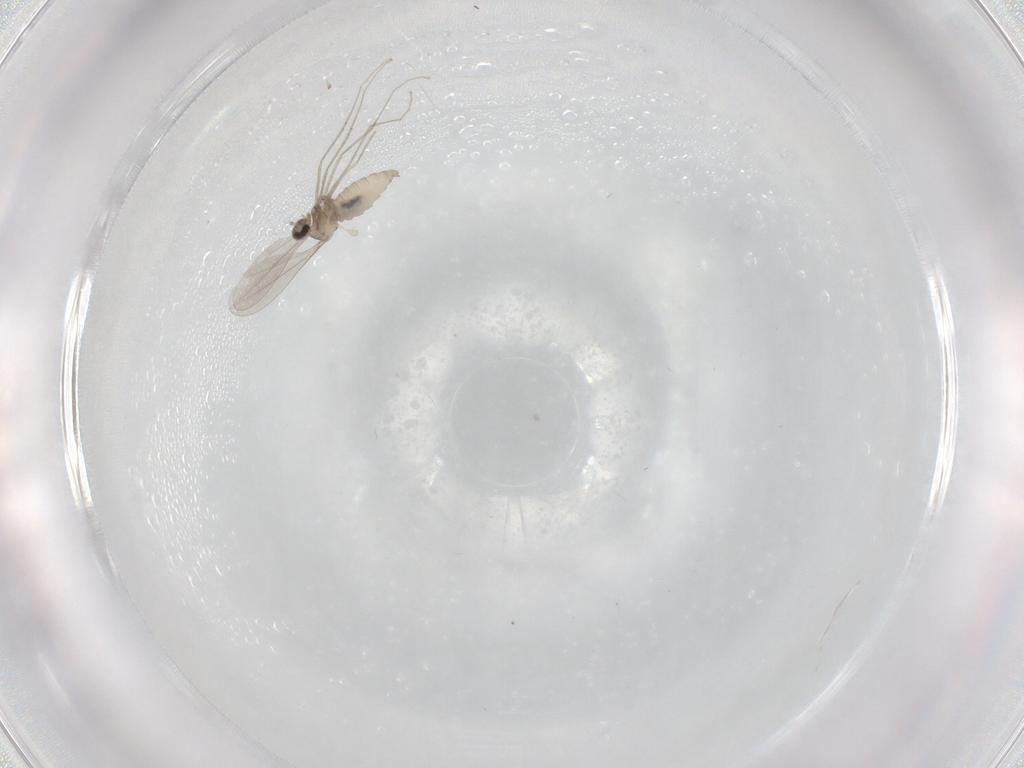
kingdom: Animalia
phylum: Arthropoda
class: Insecta
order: Diptera
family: Cecidomyiidae
